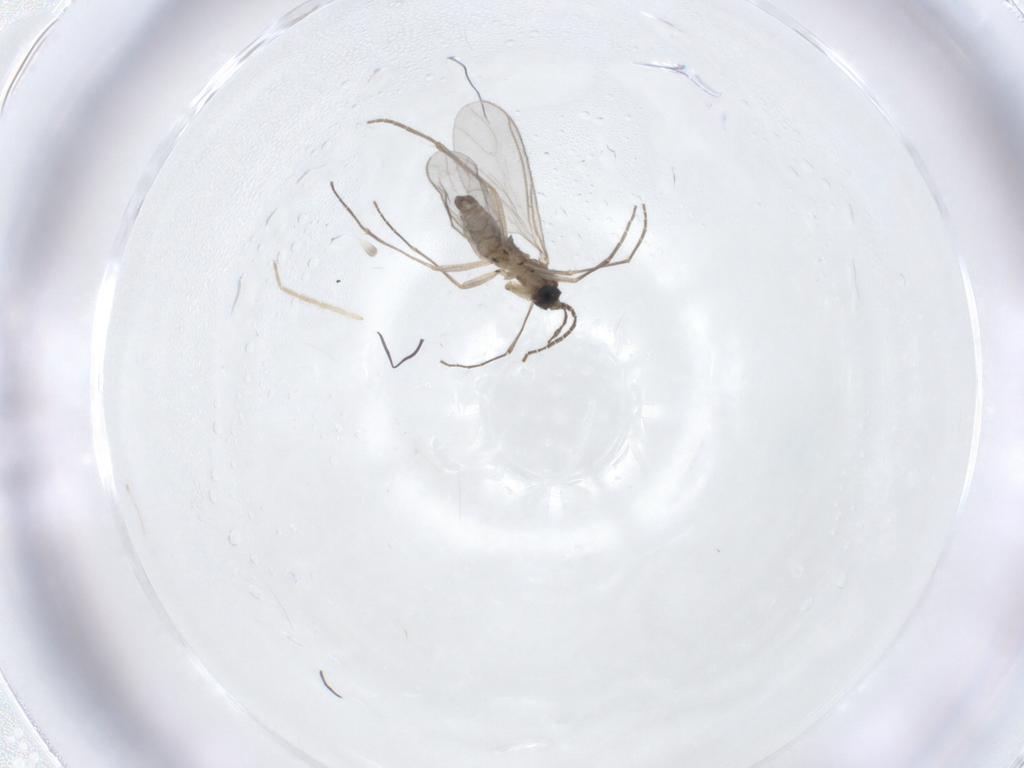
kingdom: Animalia
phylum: Arthropoda
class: Insecta
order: Diptera
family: Sciaridae
